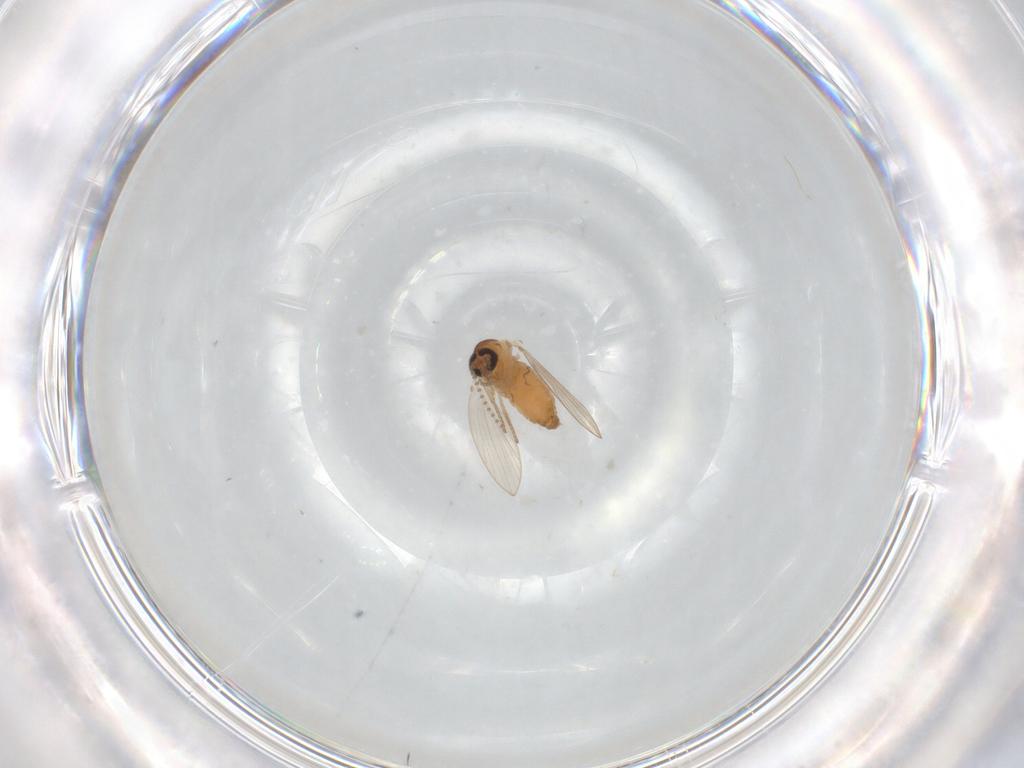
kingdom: Animalia
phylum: Arthropoda
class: Insecta
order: Diptera
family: Psychodidae
